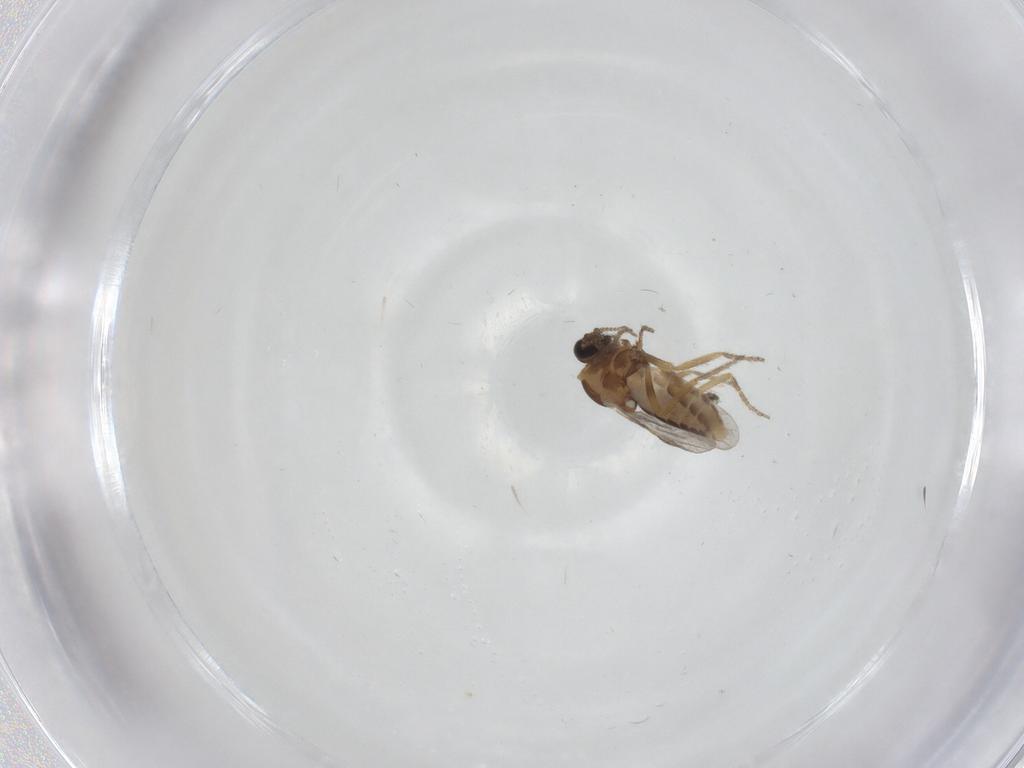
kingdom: Animalia
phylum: Arthropoda
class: Insecta
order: Diptera
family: Ceratopogonidae
